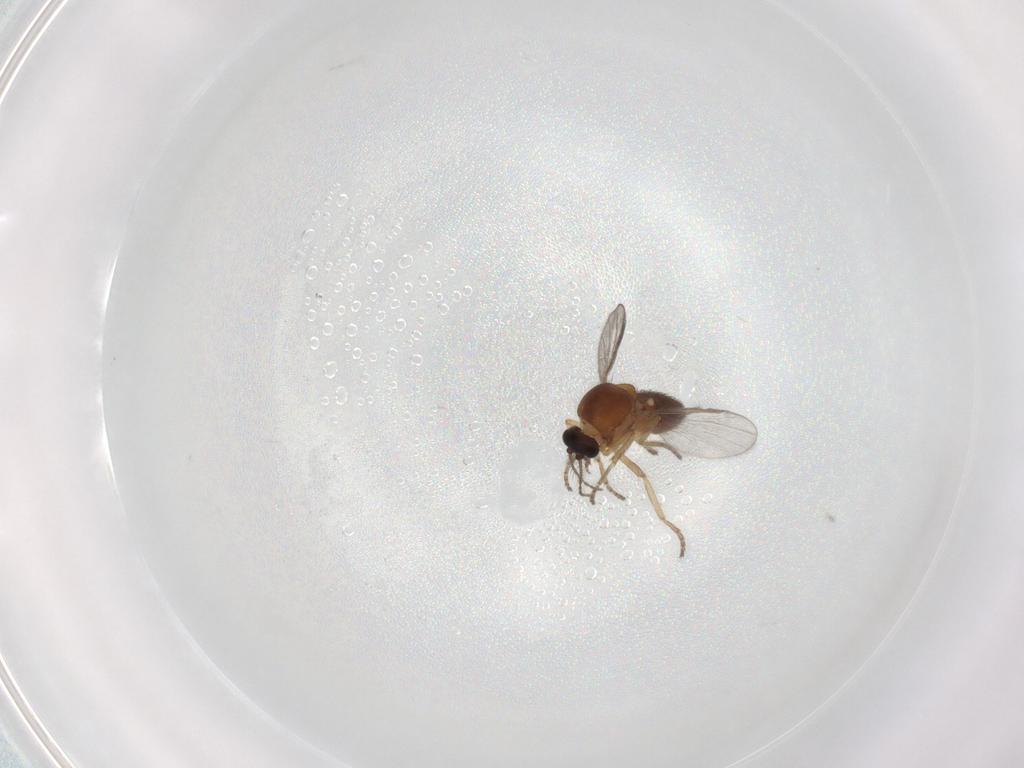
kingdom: Animalia
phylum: Arthropoda
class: Insecta
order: Diptera
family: Ceratopogonidae
